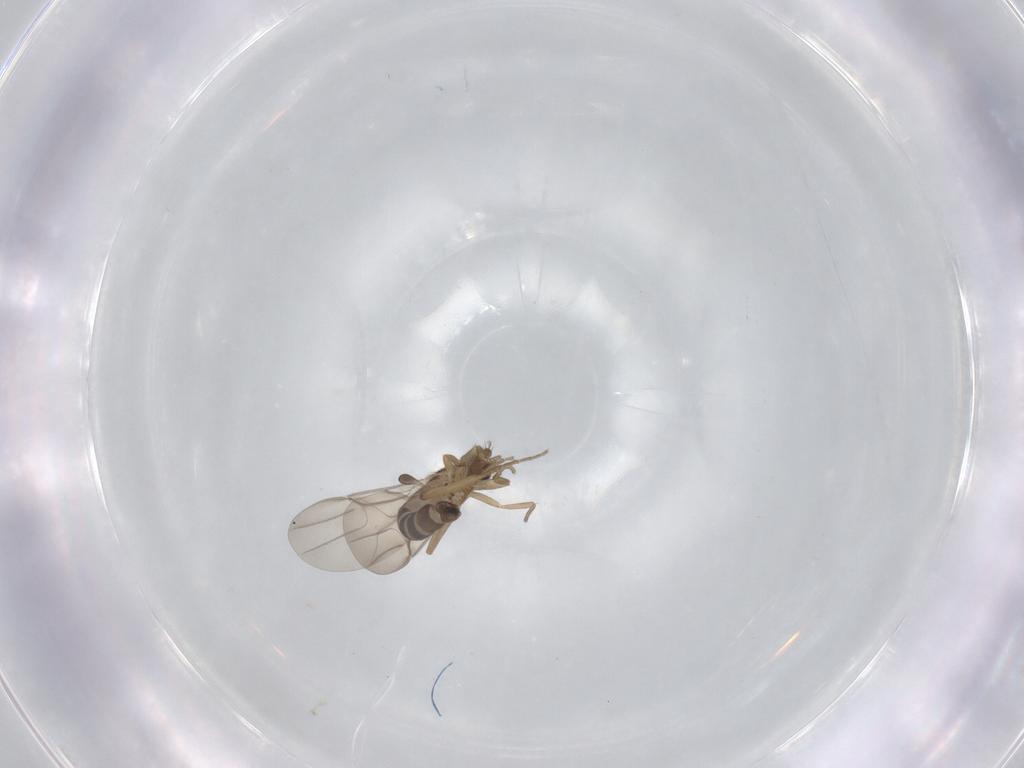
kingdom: Animalia
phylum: Arthropoda
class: Insecta
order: Diptera
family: Phoridae
